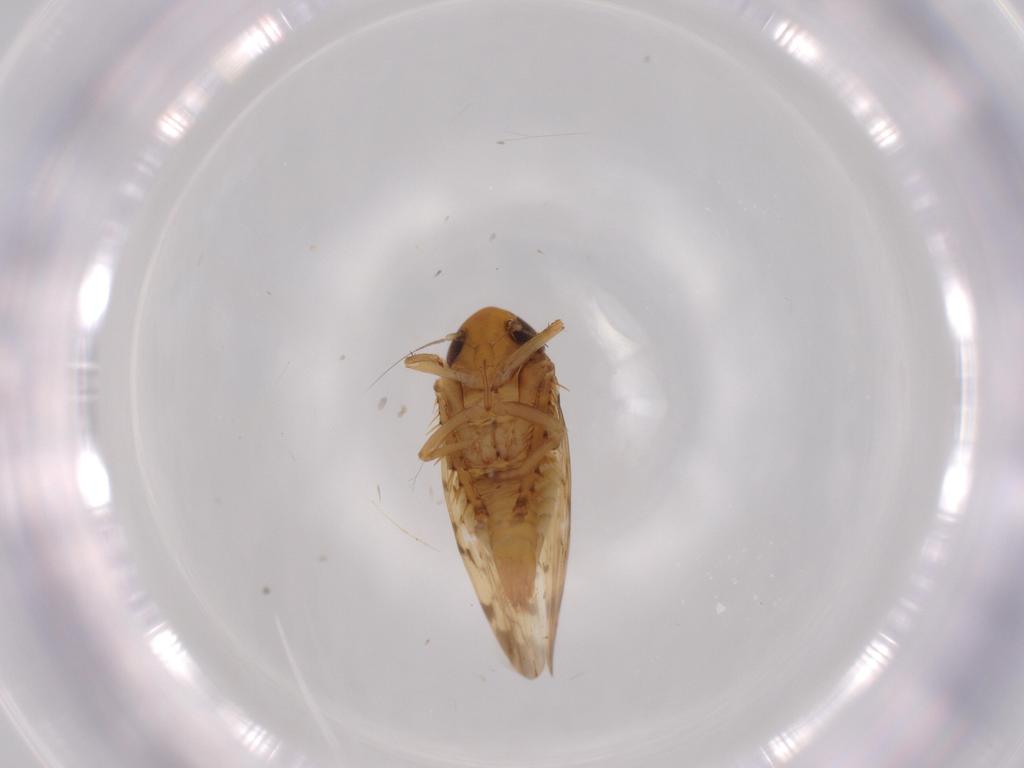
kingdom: Animalia
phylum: Arthropoda
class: Insecta
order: Hemiptera
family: Cicadellidae
